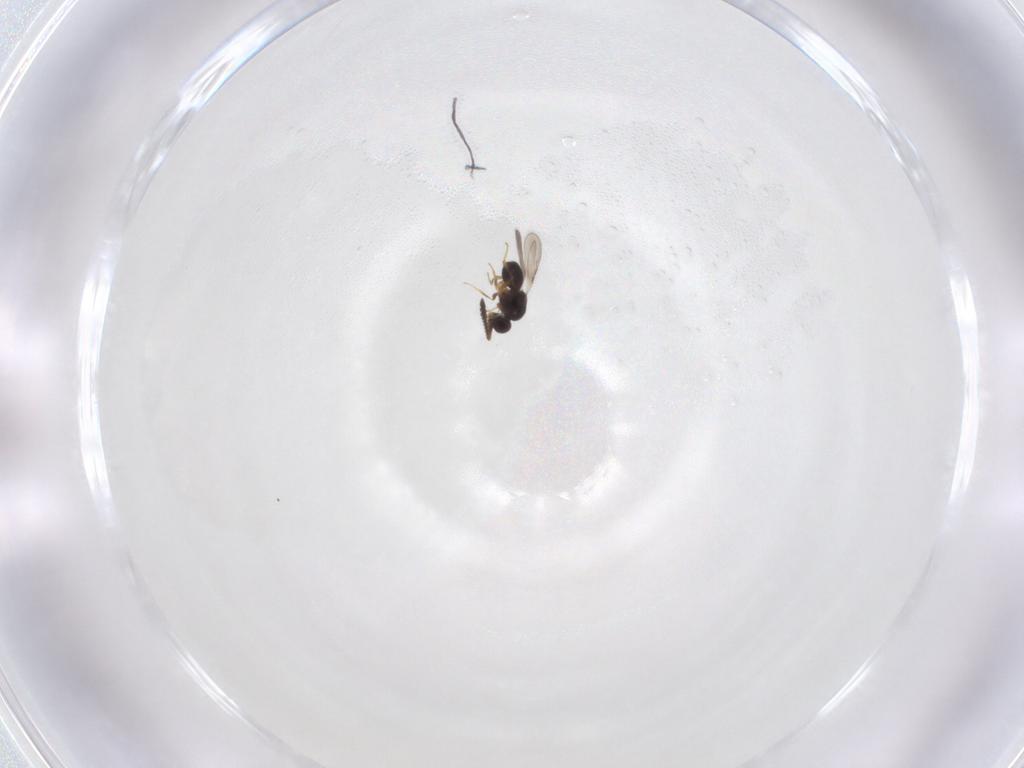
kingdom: Animalia
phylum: Arthropoda
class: Insecta
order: Hymenoptera
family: Ceraphronidae
